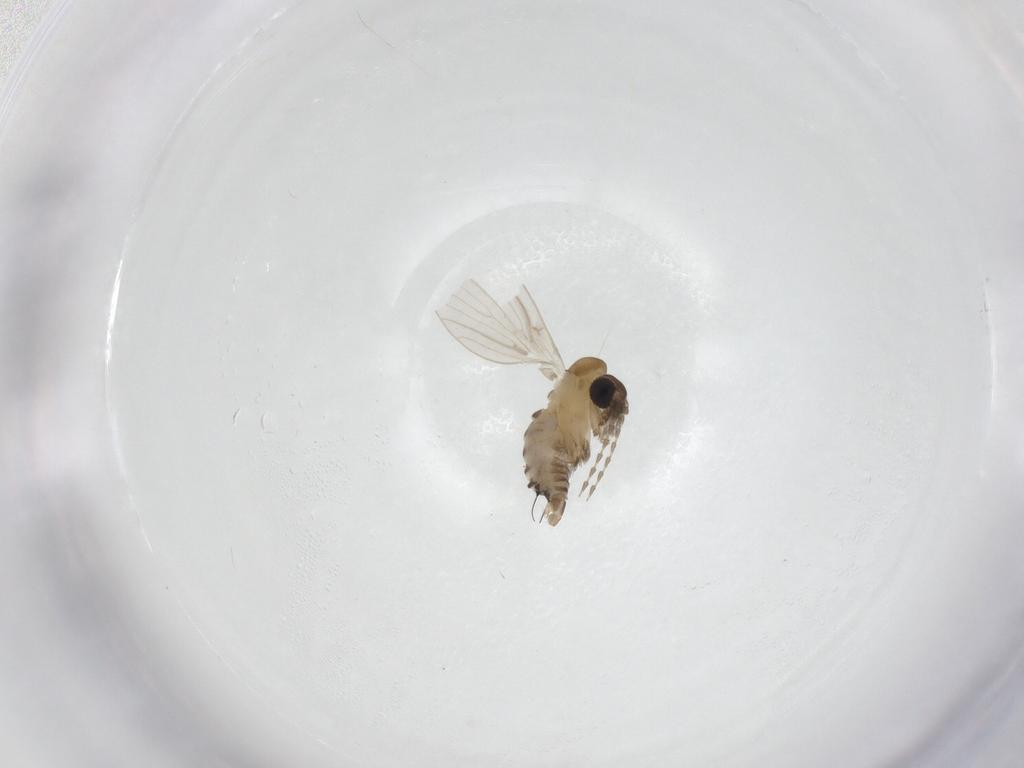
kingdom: Animalia
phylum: Arthropoda
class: Insecta
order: Diptera
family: Psychodidae
